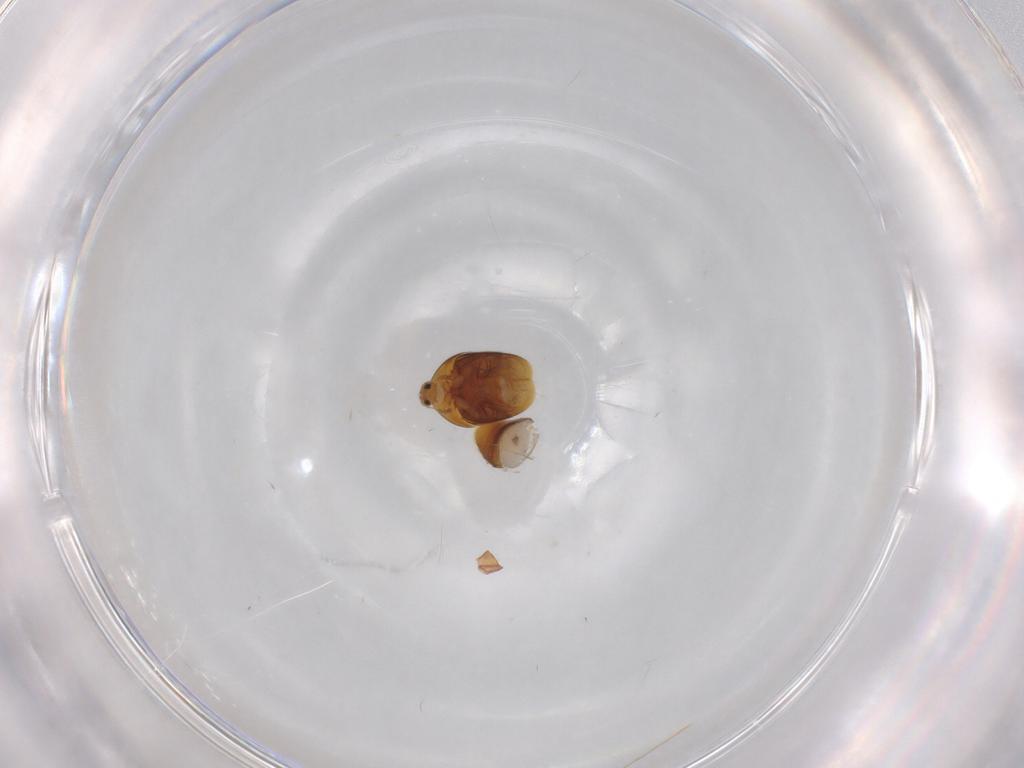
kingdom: Animalia
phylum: Arthropoda
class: Insecta
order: Coleoptera
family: Corylophidae
